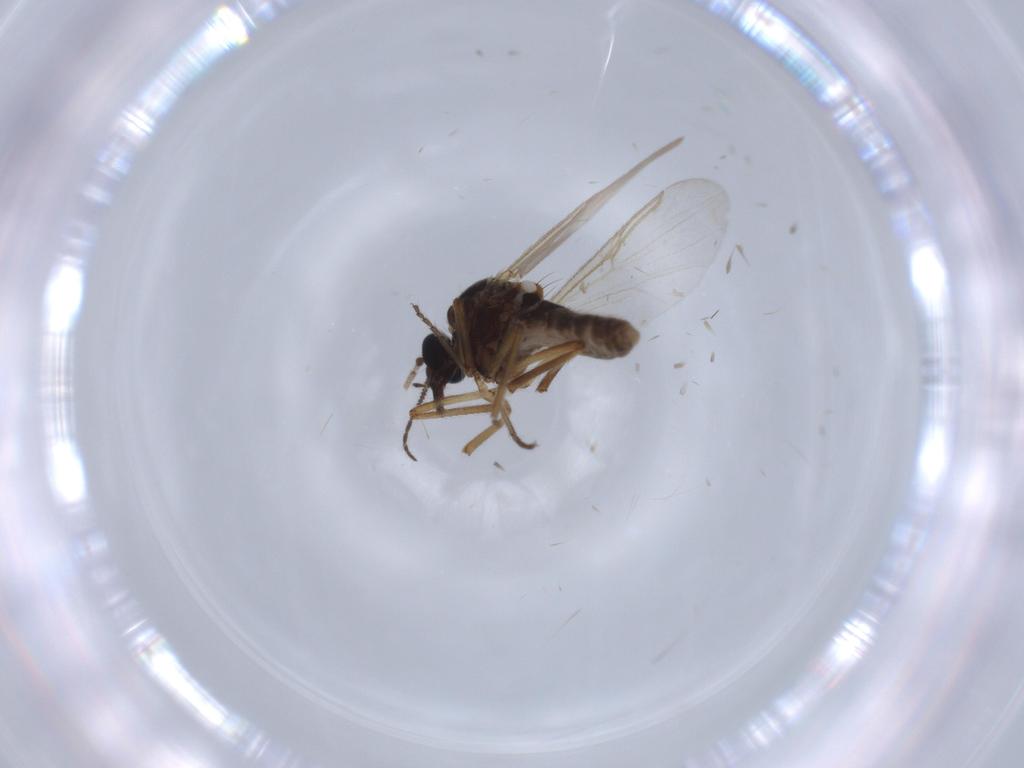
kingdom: Animalia
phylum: Arthropoda
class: Insecta
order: Diptera
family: Ceratopogonidae
